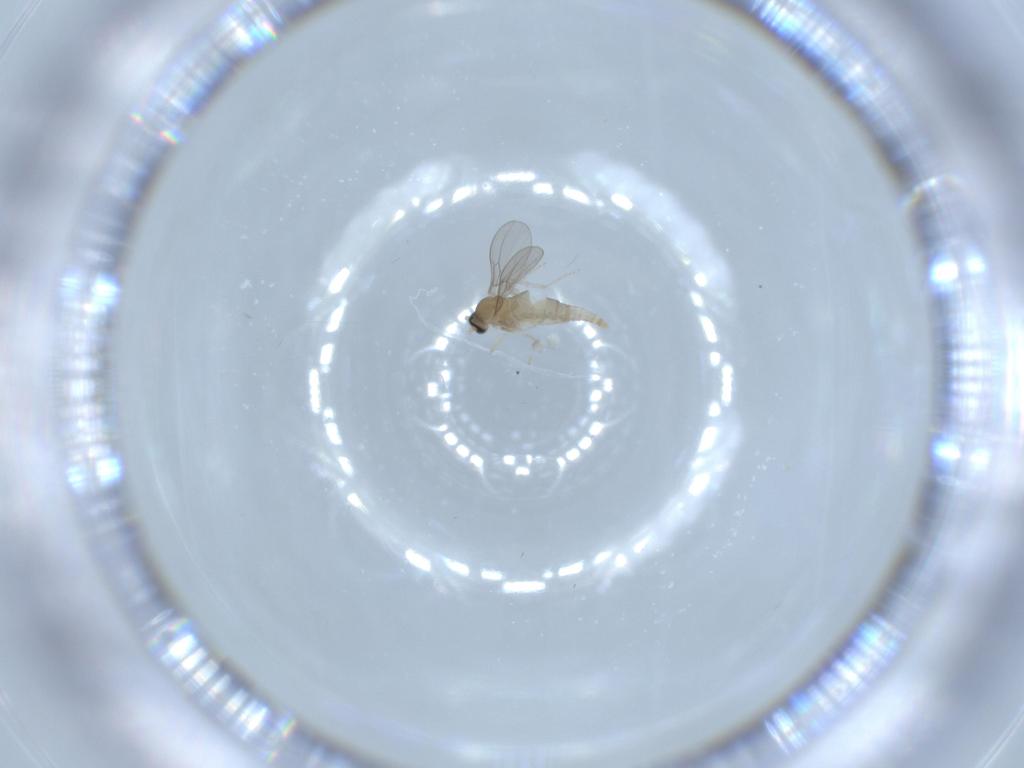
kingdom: Animalia
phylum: Arthropoda
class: Insecta
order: Diptera
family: Cecidomyiidae
